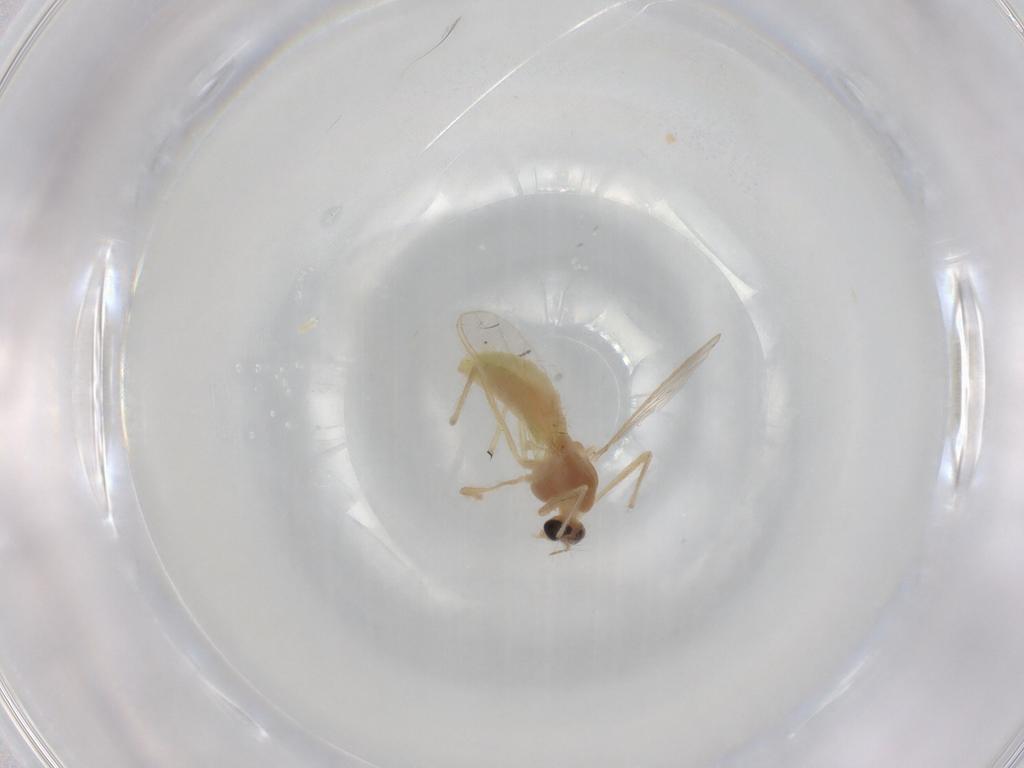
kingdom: Animalia
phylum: Arthropoda
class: Insecta
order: Diptera
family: Chironomidae
